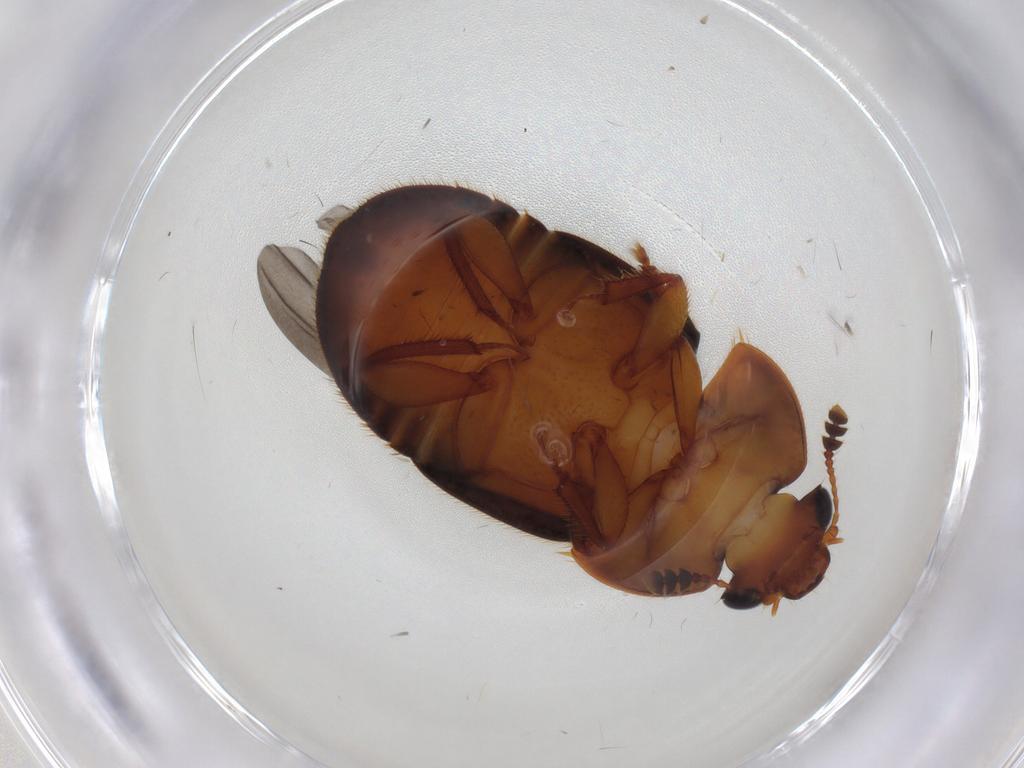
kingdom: Animalia
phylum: Arthropoda
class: Insecta
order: Coleoptera
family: Nitidulidae
